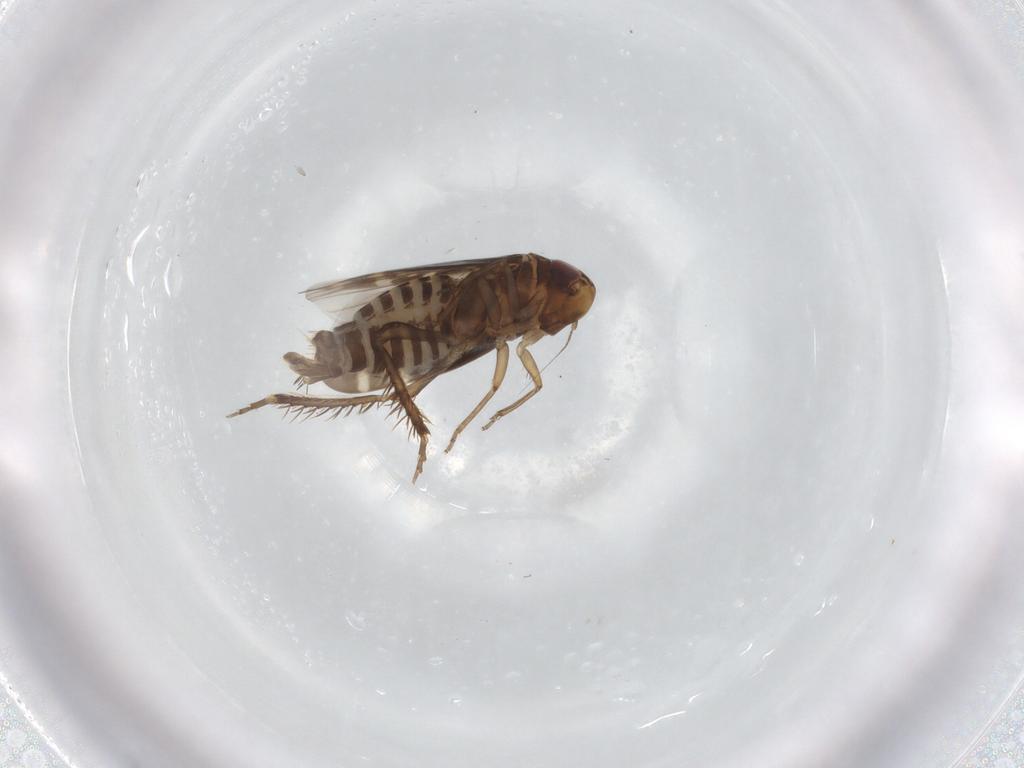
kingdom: Animalia
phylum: Arthropoda
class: Insecta
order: Hemiptera
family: Cicadellidae
